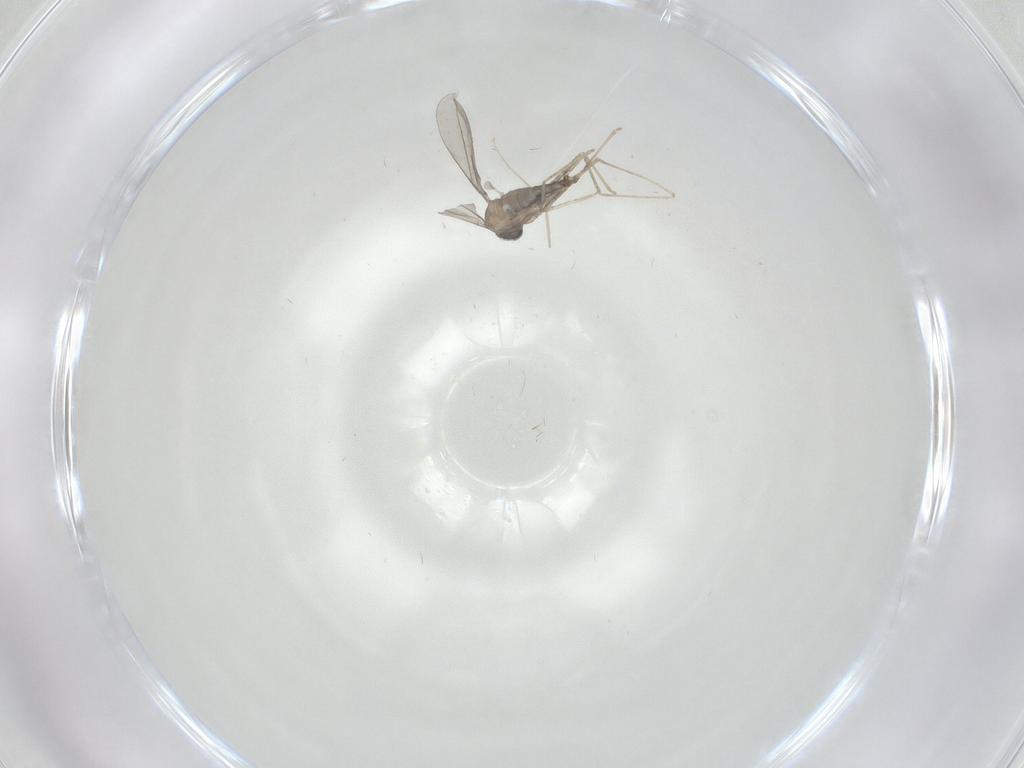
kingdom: Animalia
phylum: Arthropoda
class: Insecta
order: Diptera
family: Cecidomyiidae
